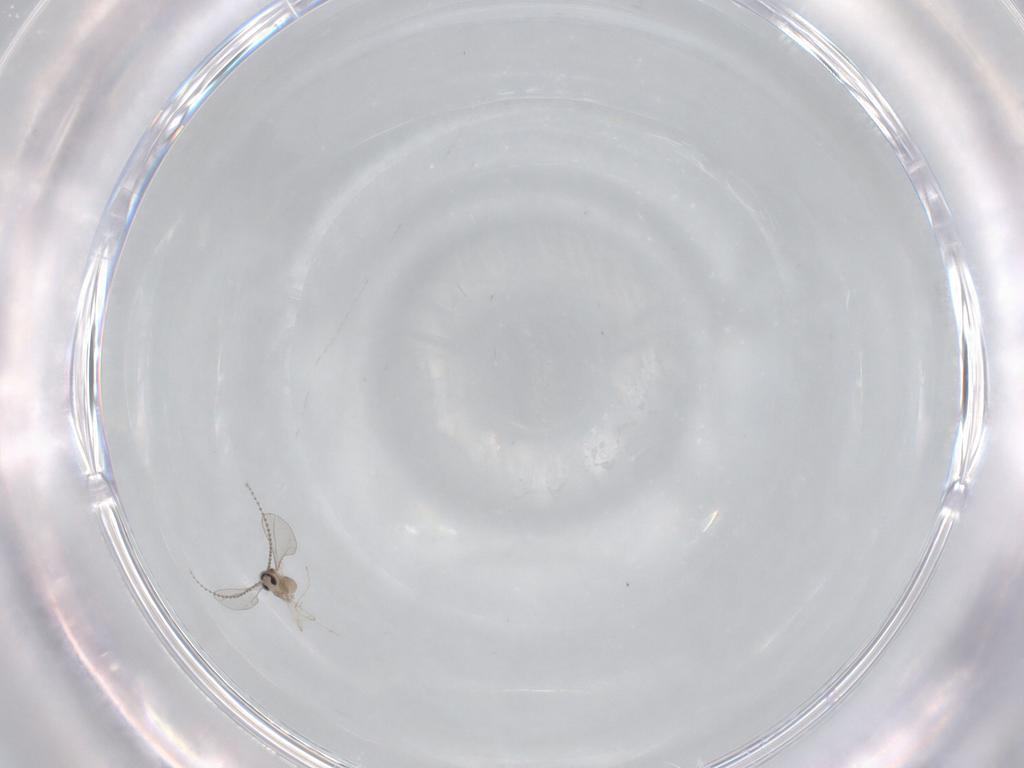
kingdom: Animalia
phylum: Arthropoda
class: Insecta
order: Diptera
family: Cecidomyiidae
